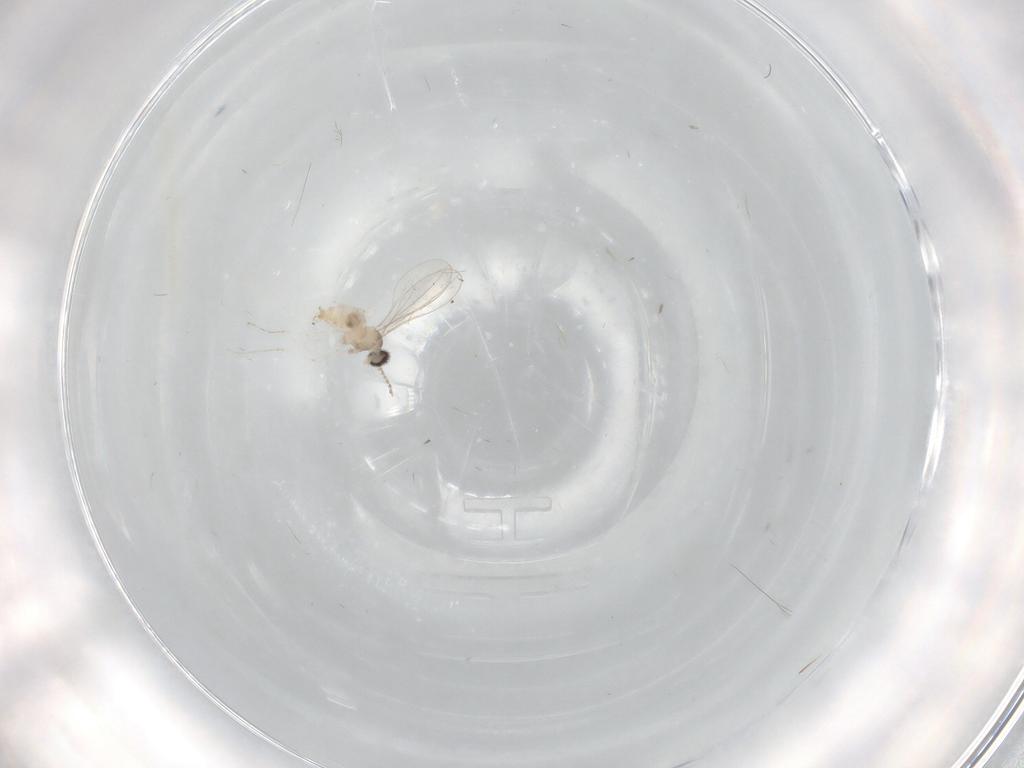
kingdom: Animalia
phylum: Arthropoda
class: Insecta
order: Diptera
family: Cecidomyiidae
